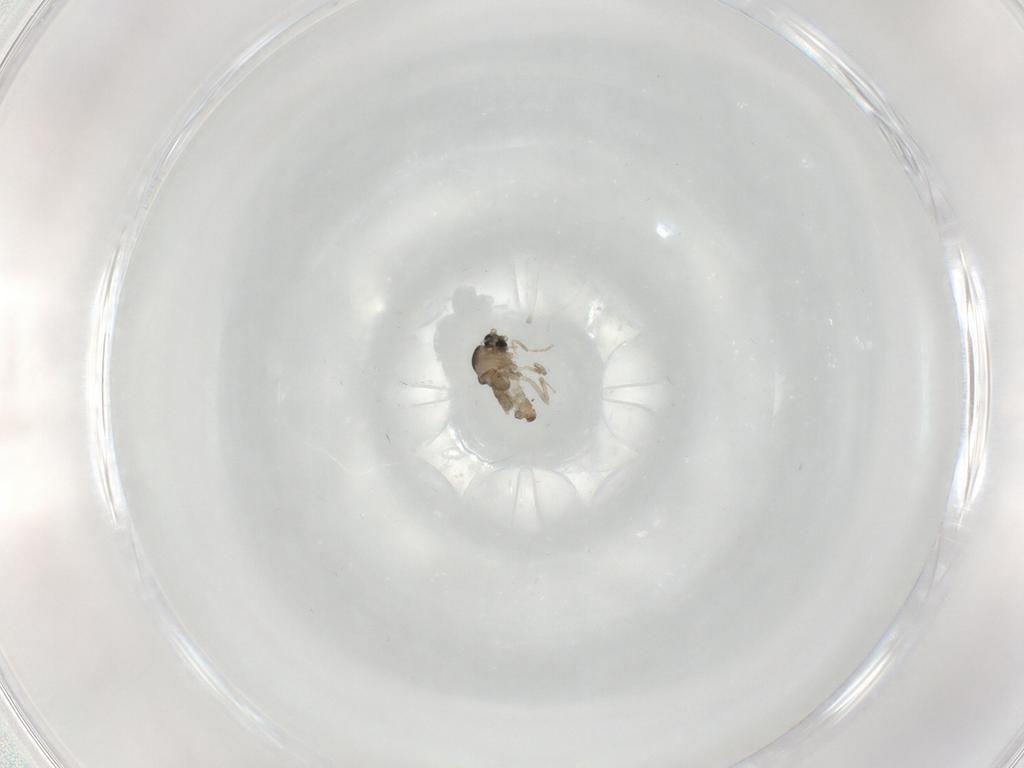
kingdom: Animalia
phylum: Arthropoda
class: Insecta
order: Diptera
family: Cecidomyiidae
